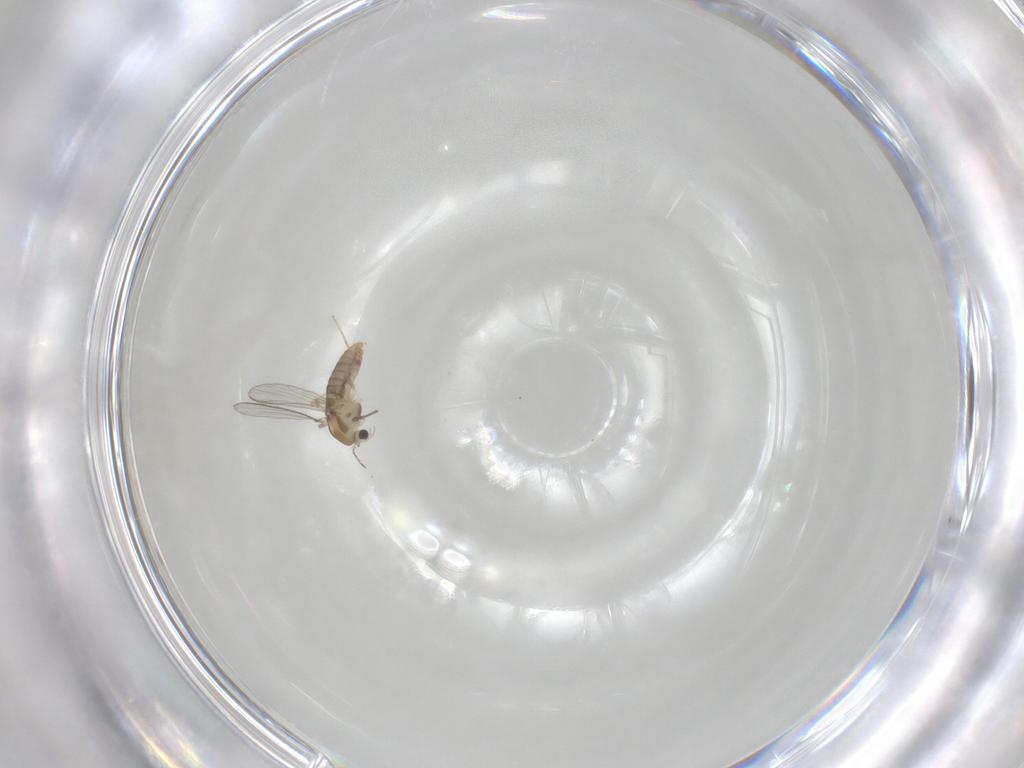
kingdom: Animalia
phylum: Arthropoda
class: Insecta
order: Diptera
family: Chironomidae
